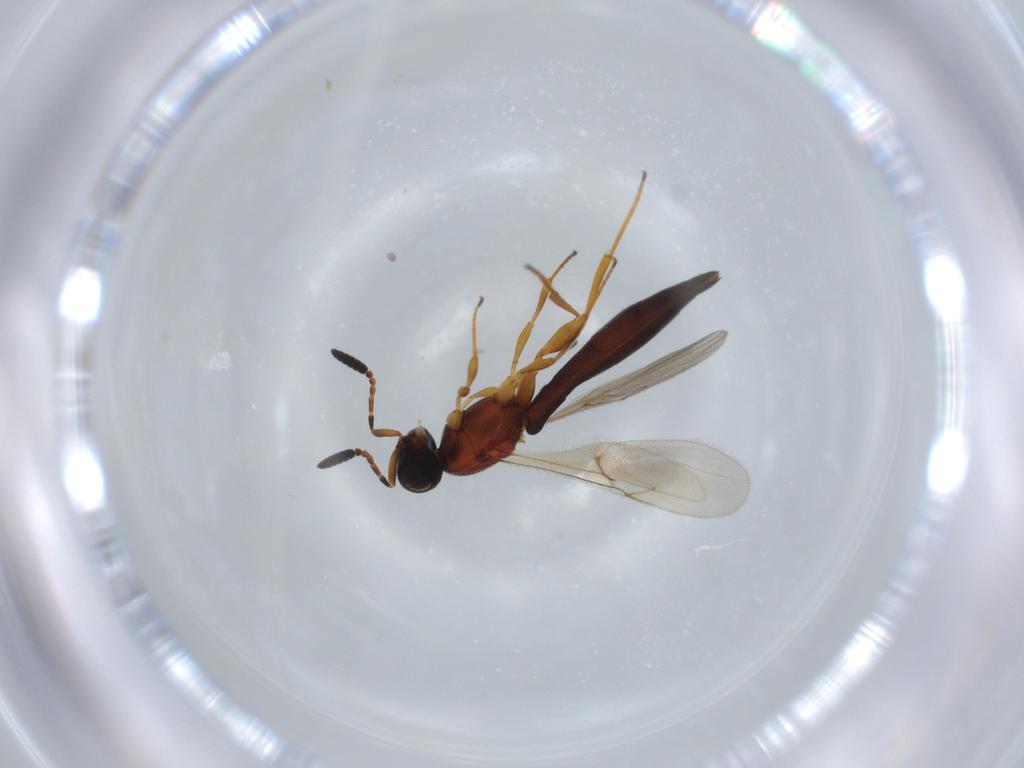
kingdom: Animalia
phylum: Arthropoda
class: Insecta
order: Hymenoptera
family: Scelionidae
